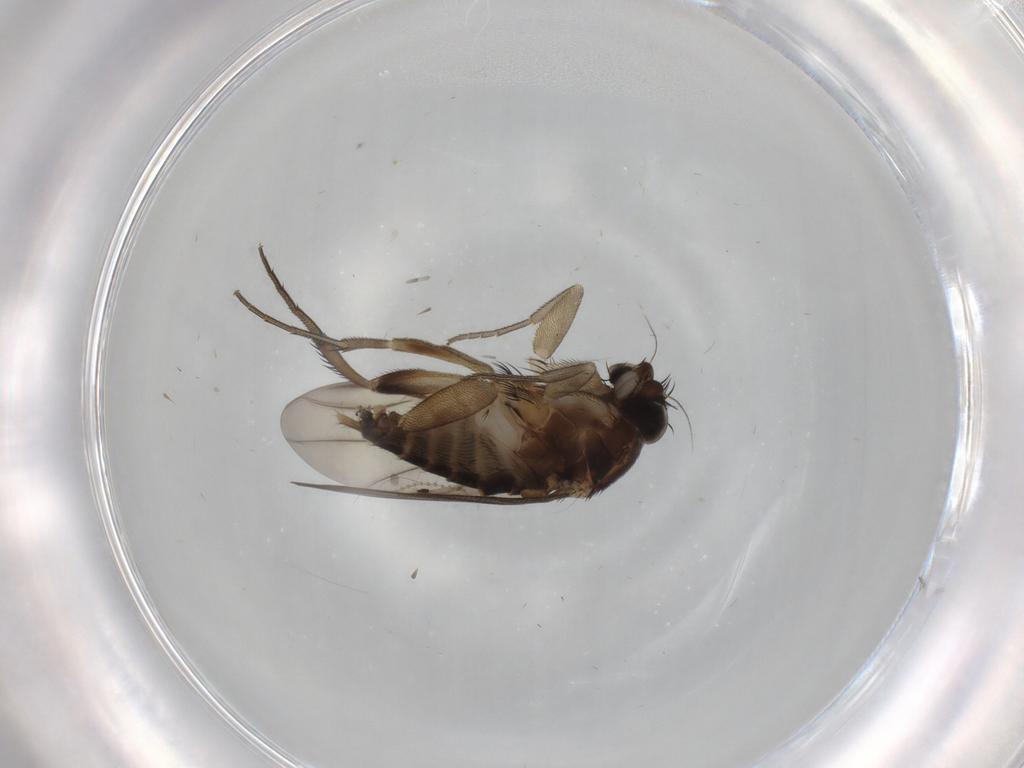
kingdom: Animalia
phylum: Arthropoda
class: Insecta
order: Diptera
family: Phoridae
